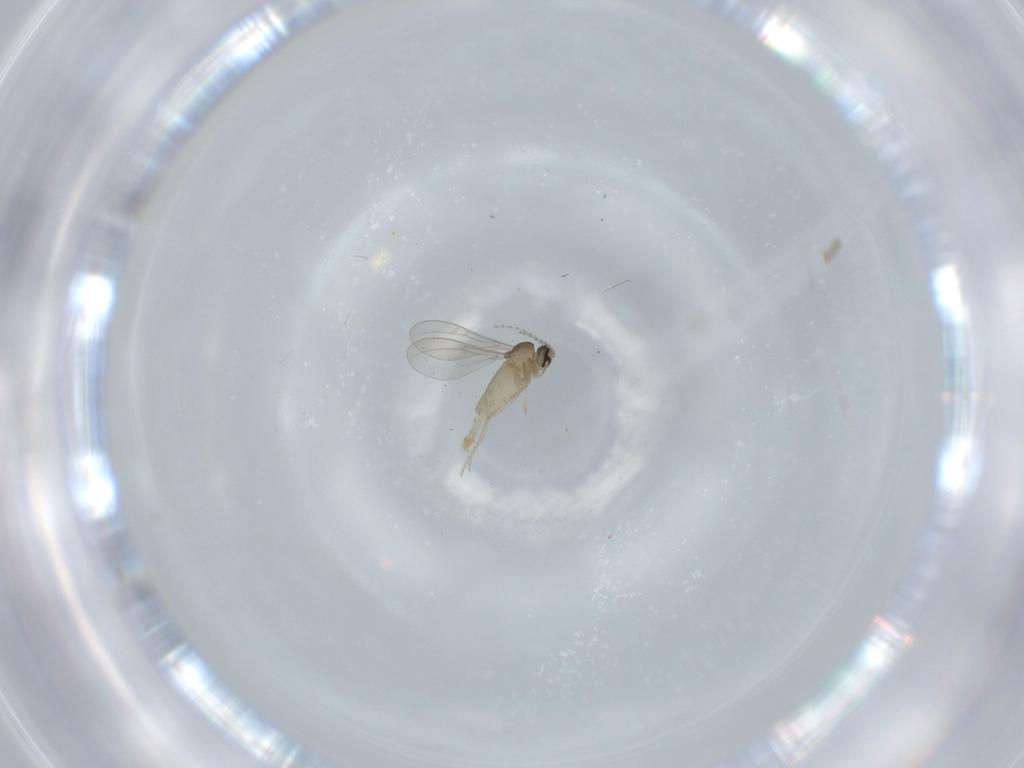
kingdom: Animalia
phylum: Arthropoda
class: Insecta
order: Diptera
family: Cecidomyiidae
